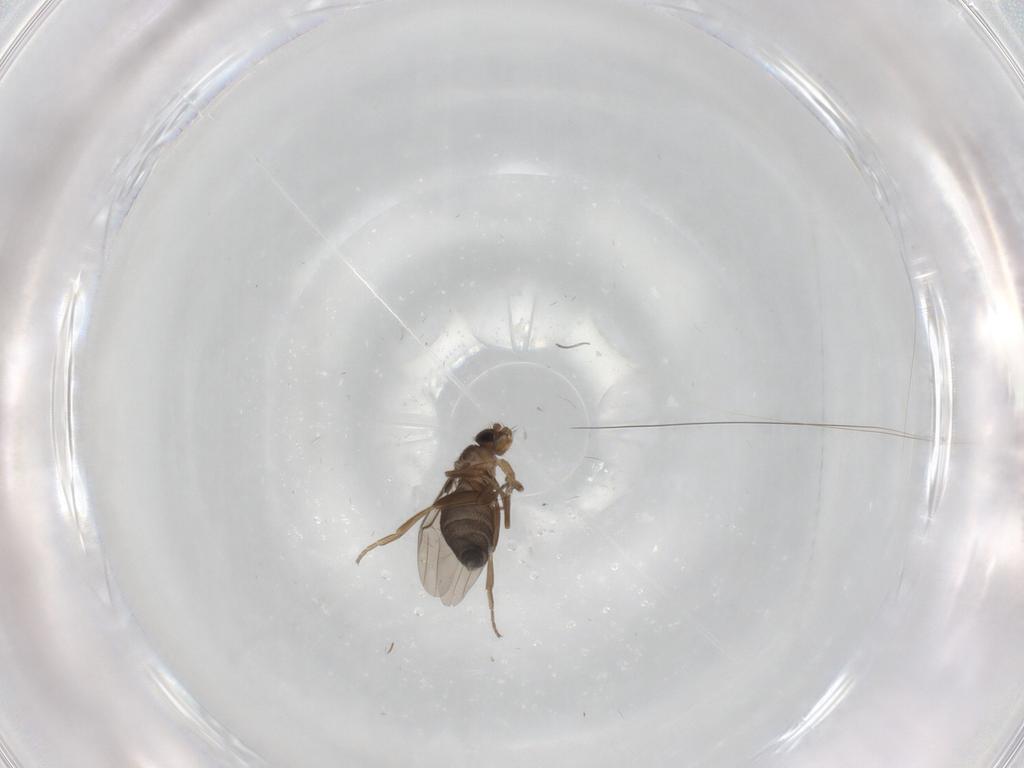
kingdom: Animalia
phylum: Arthropoda
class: Insecta
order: Diptera
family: Phoridae
